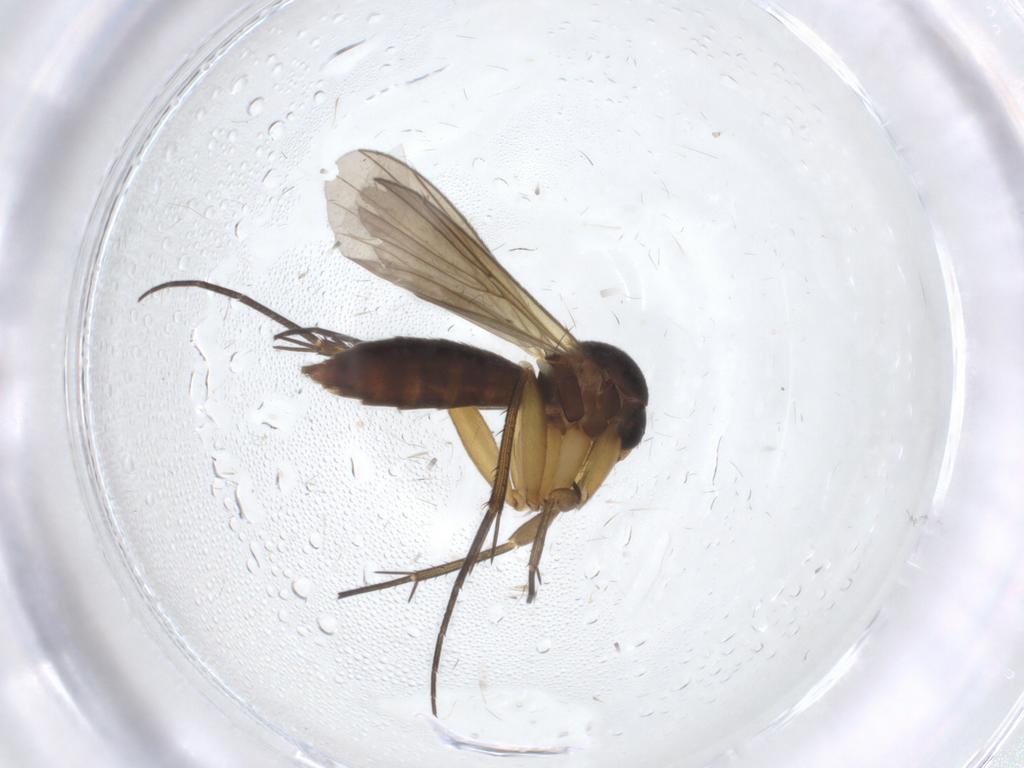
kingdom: Animalia
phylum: Arthropoda
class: Insecta
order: Diptera
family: Mycetophilidae
